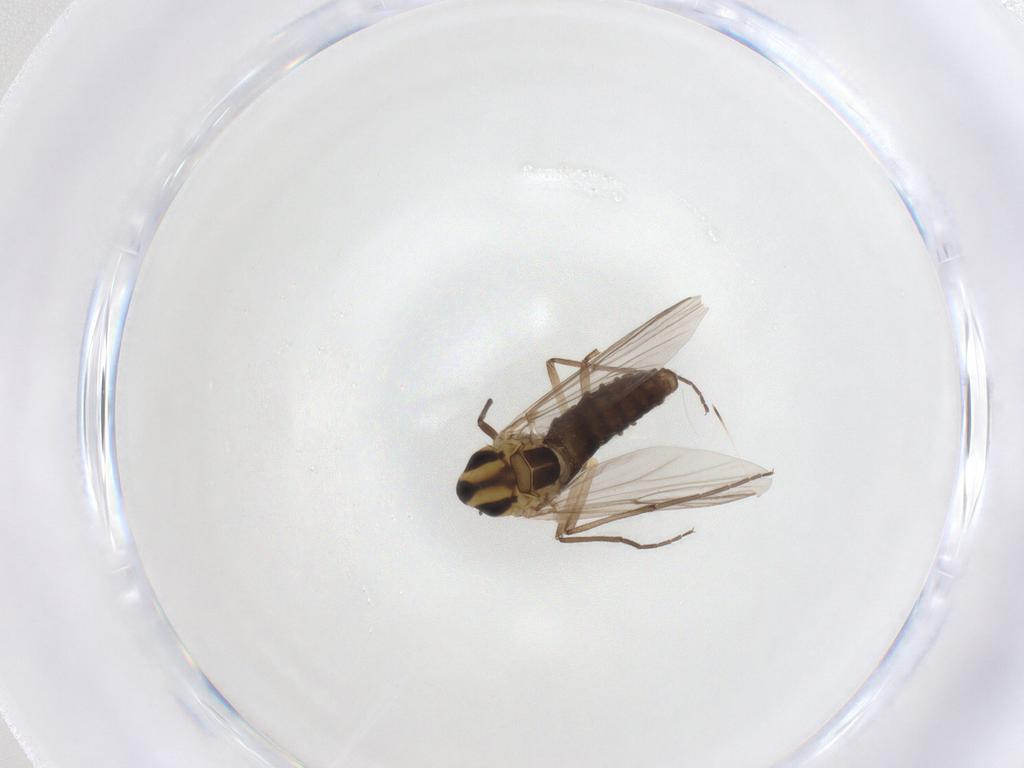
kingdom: Animalia
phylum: Arthropoda
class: Insecta
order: Diptera
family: Chironomidae
